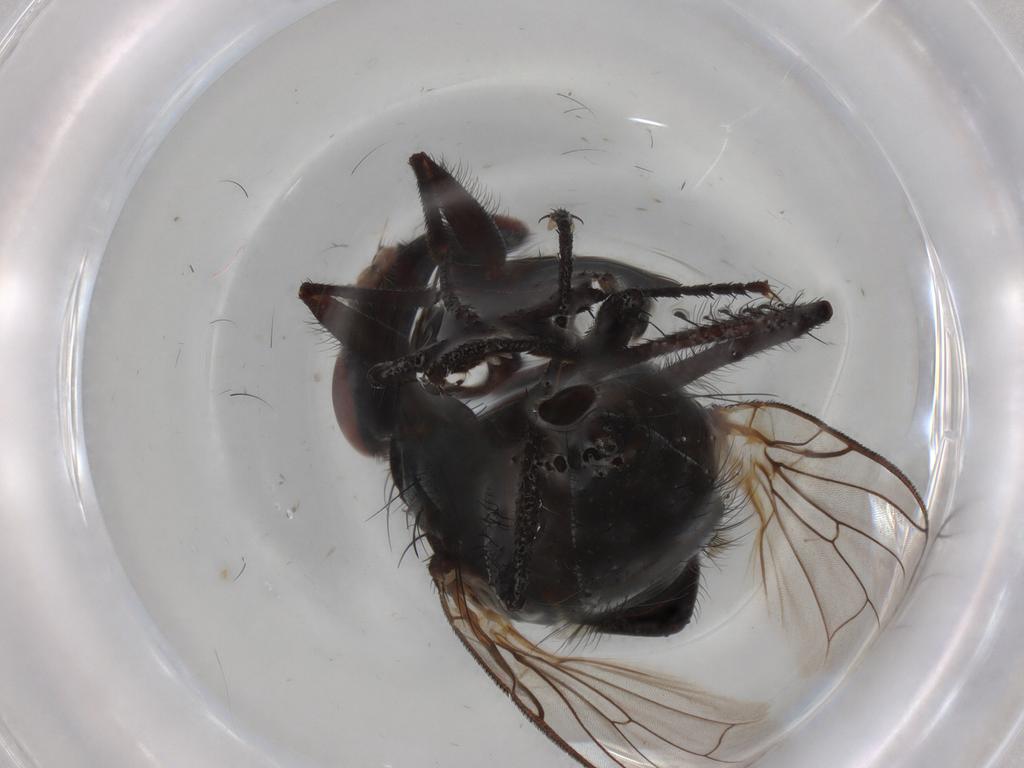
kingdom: Animalia
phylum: Arthropoda
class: Insecta
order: Diptera
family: Anthomyiidae
